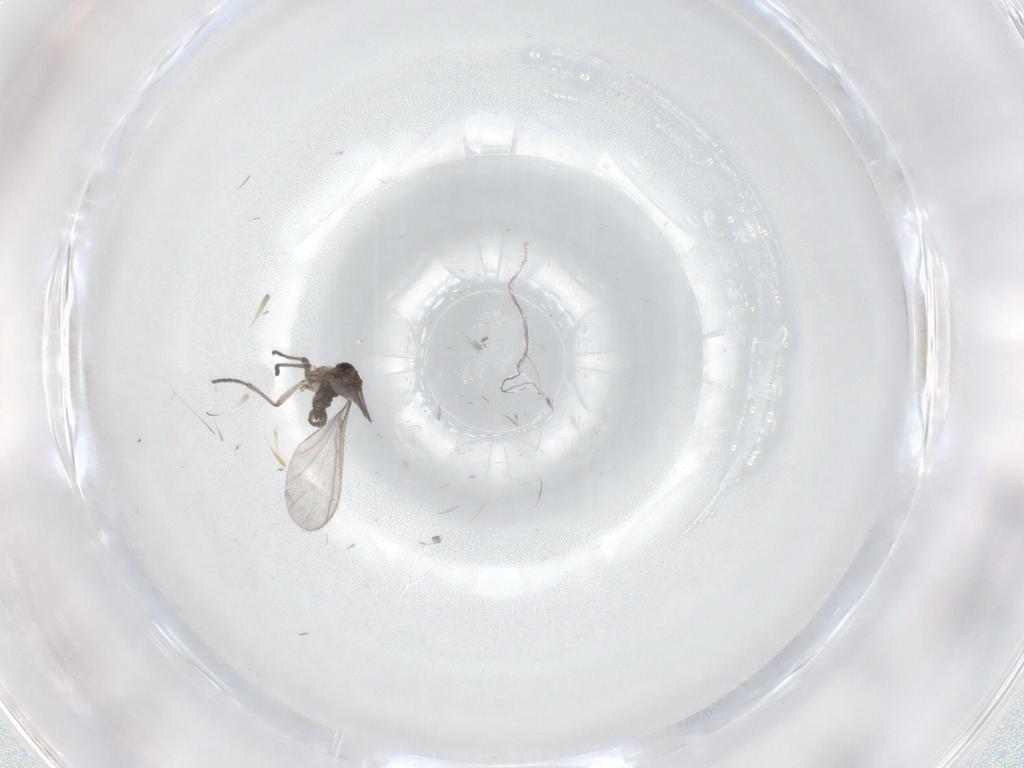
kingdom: Animalia
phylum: Arthropoda
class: Insecta
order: Diptera
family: Sciaridae
